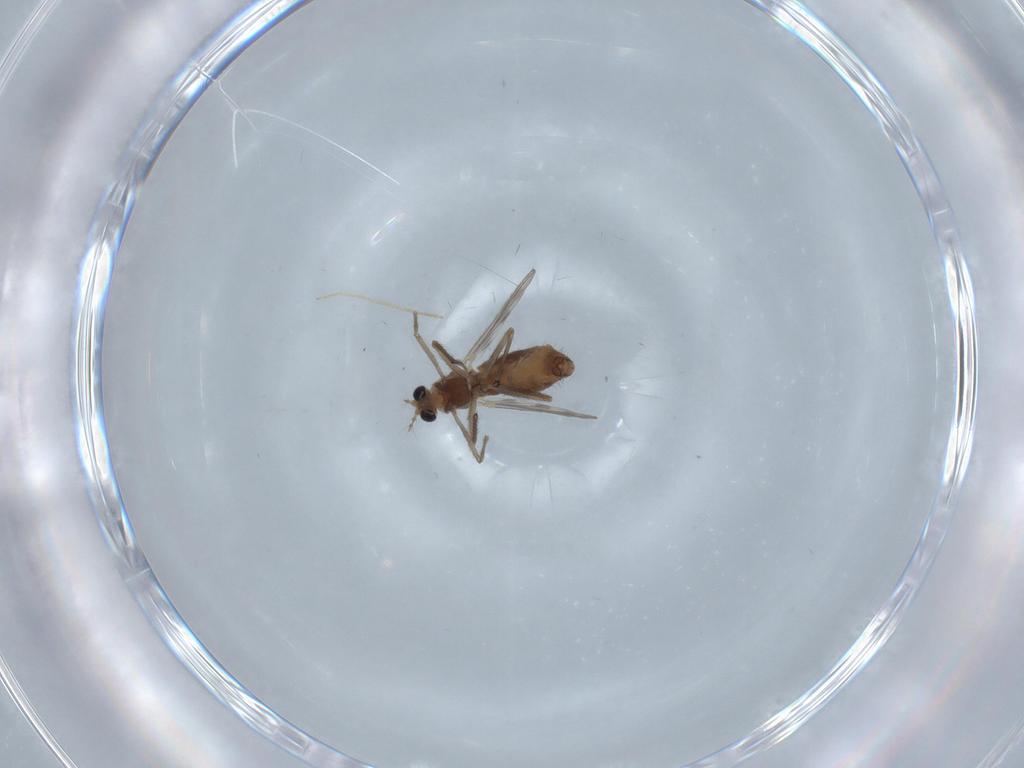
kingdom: Animalia
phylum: Arthropoda
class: Insecta
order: Diptera
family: Chironomidae
